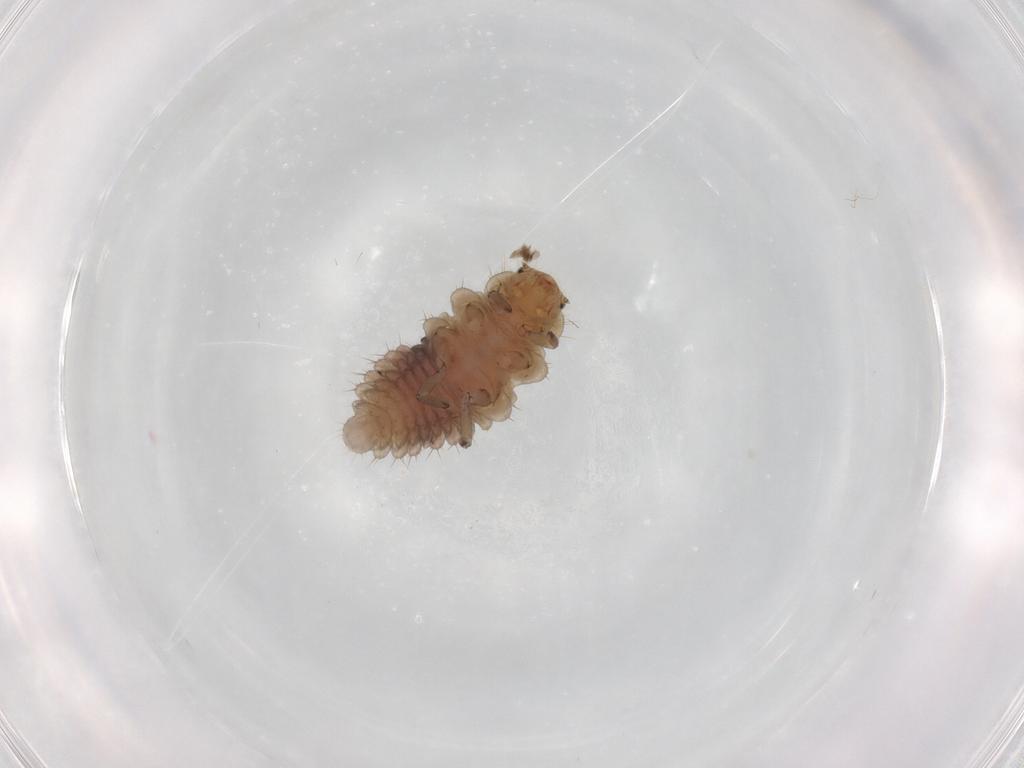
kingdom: Animalia
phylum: Arthropoda
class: Insecta
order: Coleoptera
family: Coccinellidae
